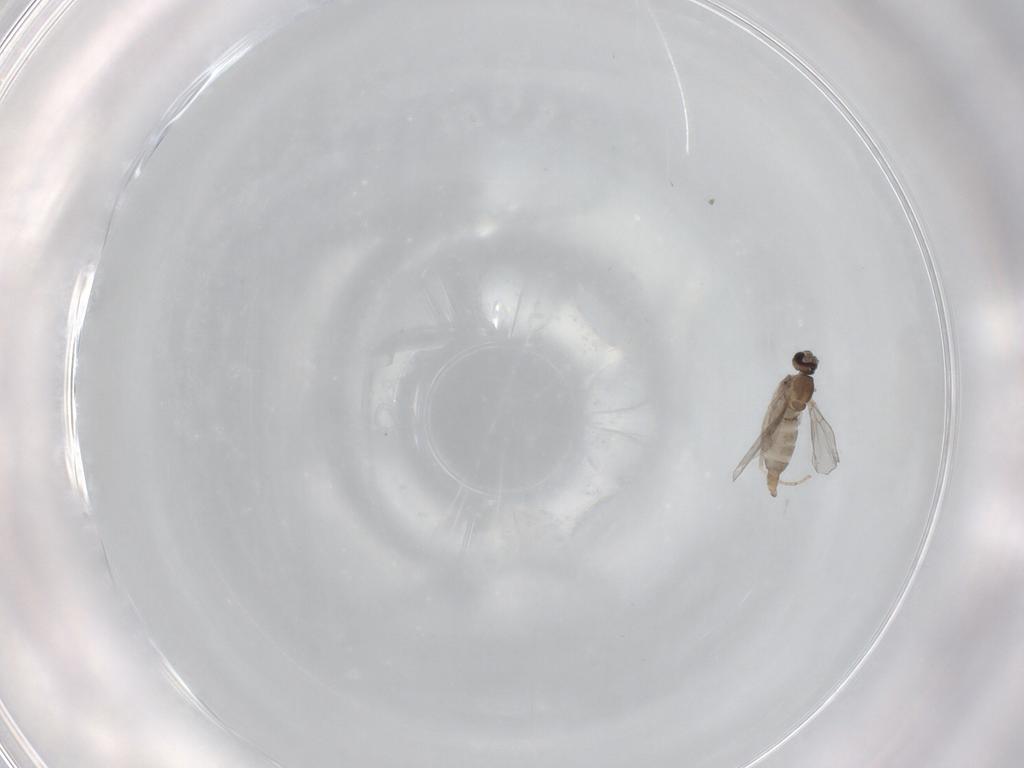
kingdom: Animalia
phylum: Arthropoda
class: Insecta
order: Diptera
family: Cecidomyiidae
